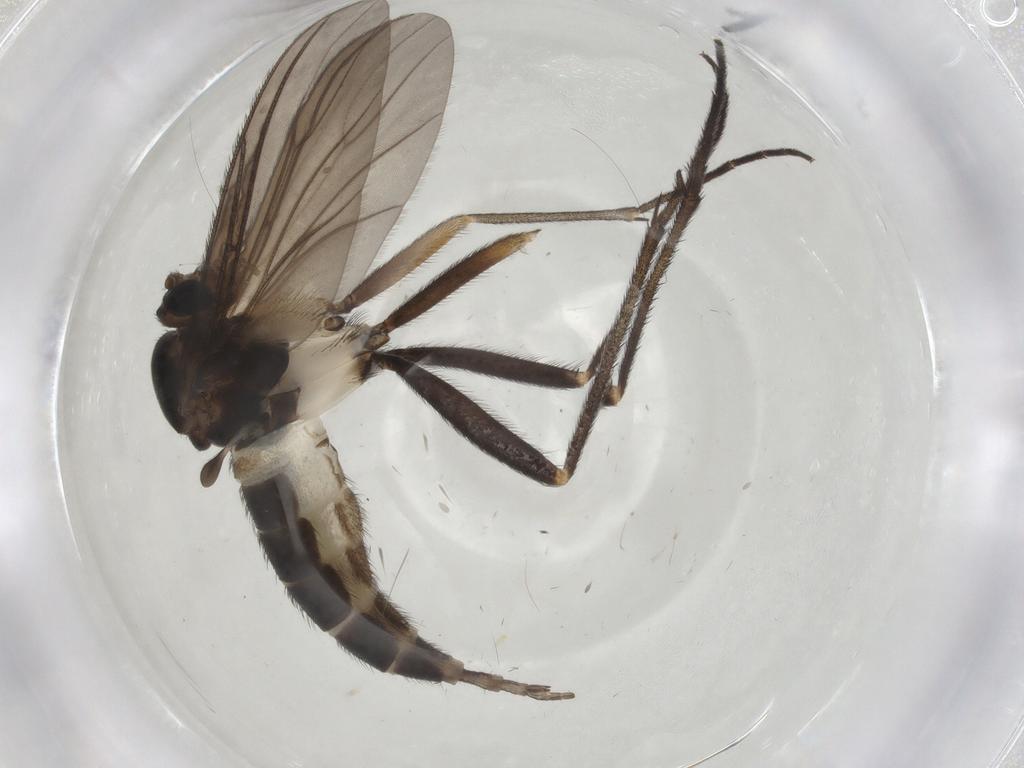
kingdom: Animalia
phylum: Arthropoda
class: Insecta
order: Diptera
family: Sciaridae
